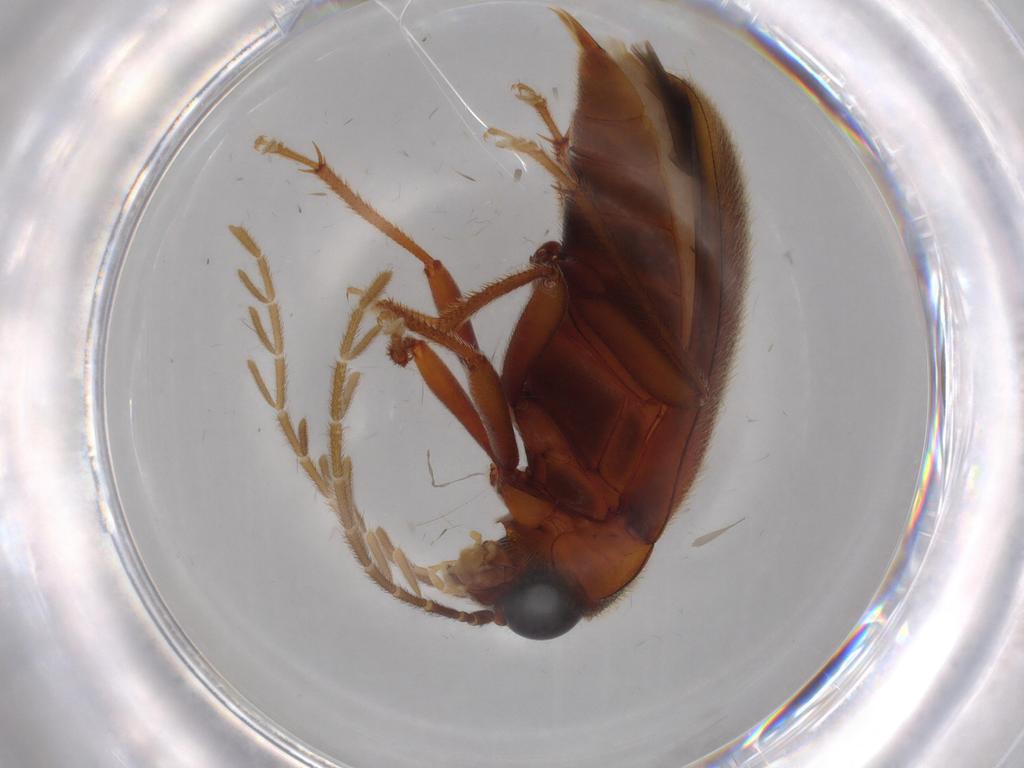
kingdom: Animalia
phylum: Arthropoda
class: Insecta
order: Coleoptera
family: Ptilodactylidae
